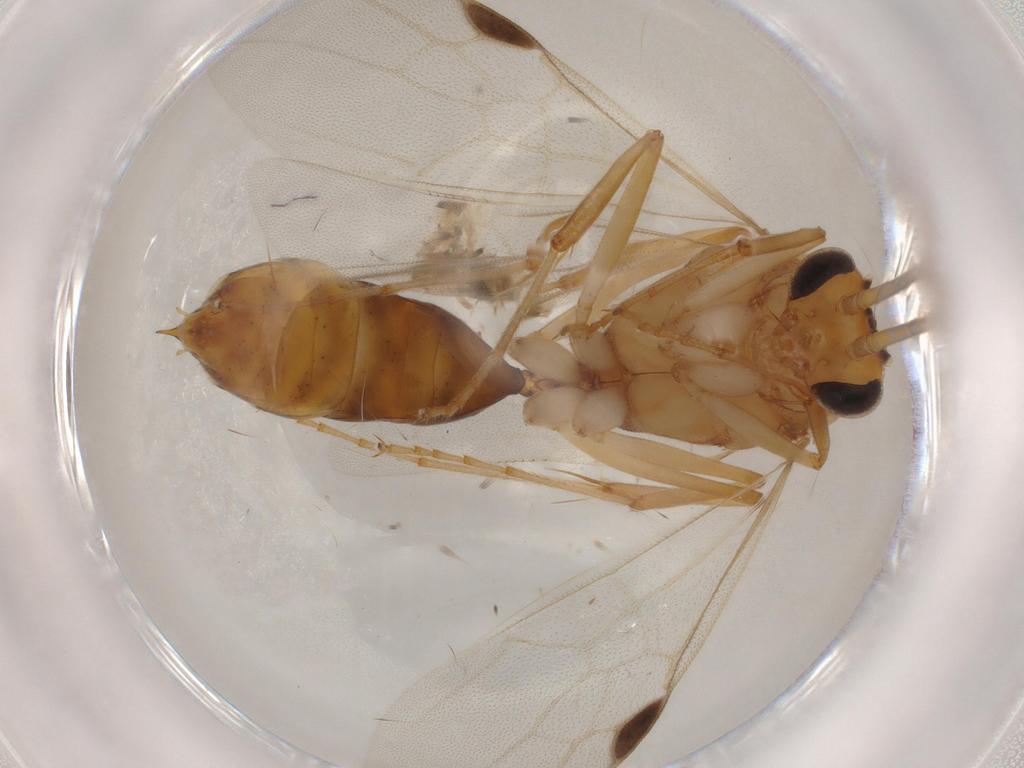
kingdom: Animalia
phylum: Arthropoda
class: Insecta
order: Hymenoptera
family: Formicidae
